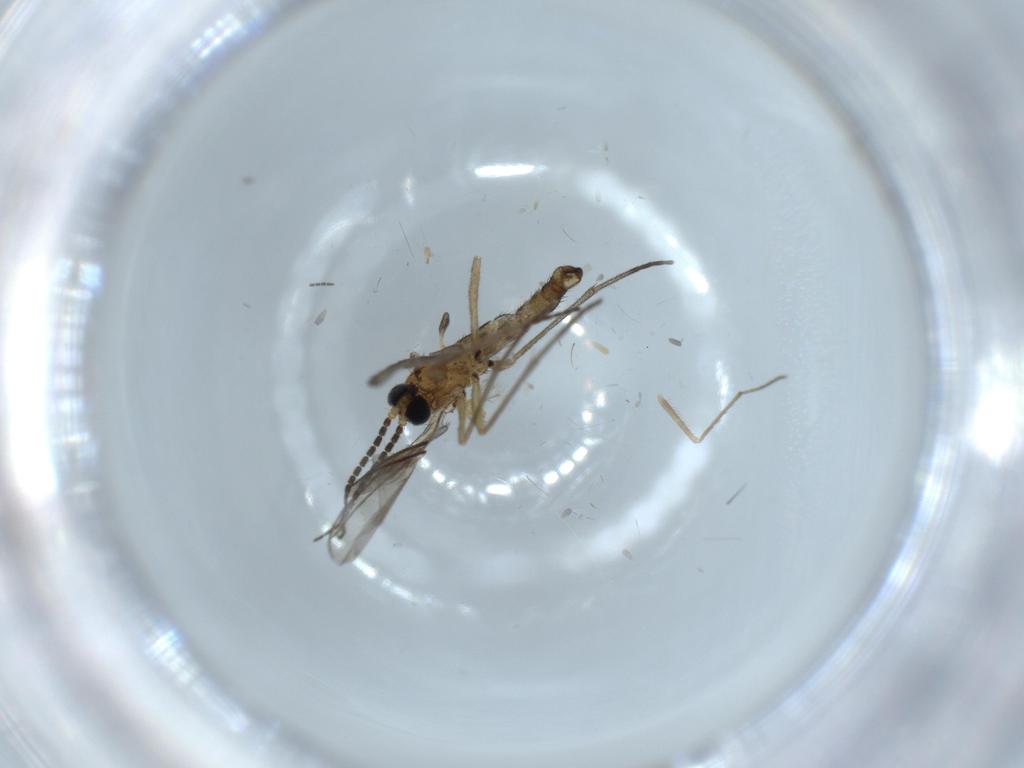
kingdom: Animalia
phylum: Arthropoda
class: Insecta
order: Diptera
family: Sciaridae
